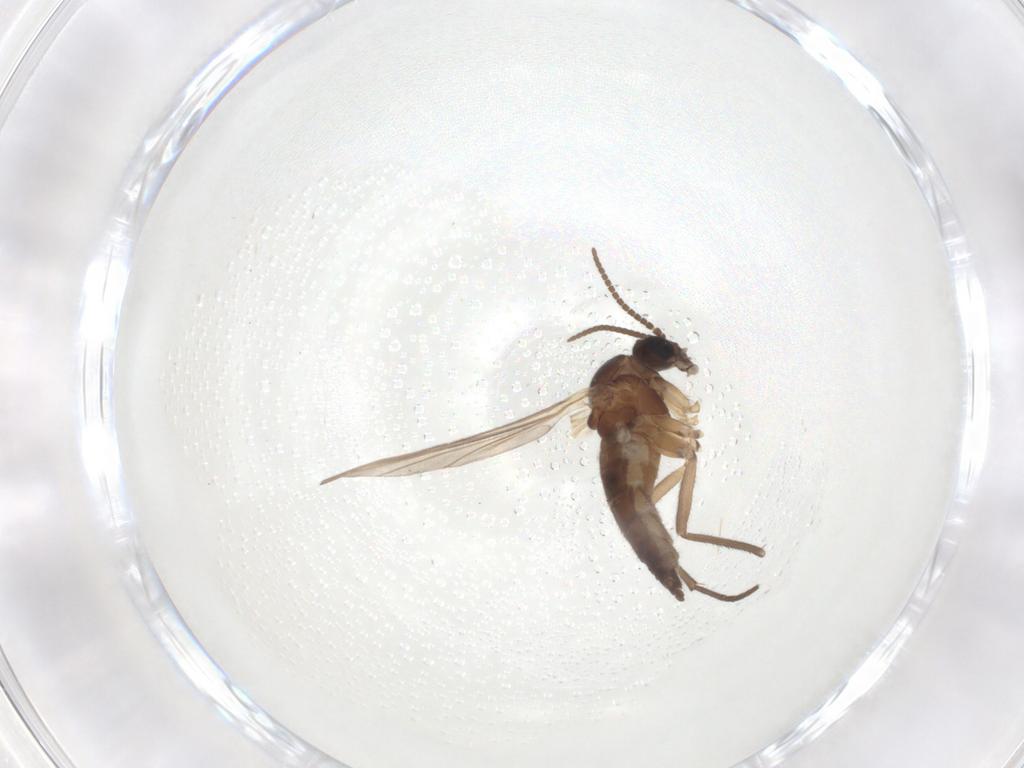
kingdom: Animalia
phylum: Arthropoda
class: Insecta
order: Diptera
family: Sciaridae
